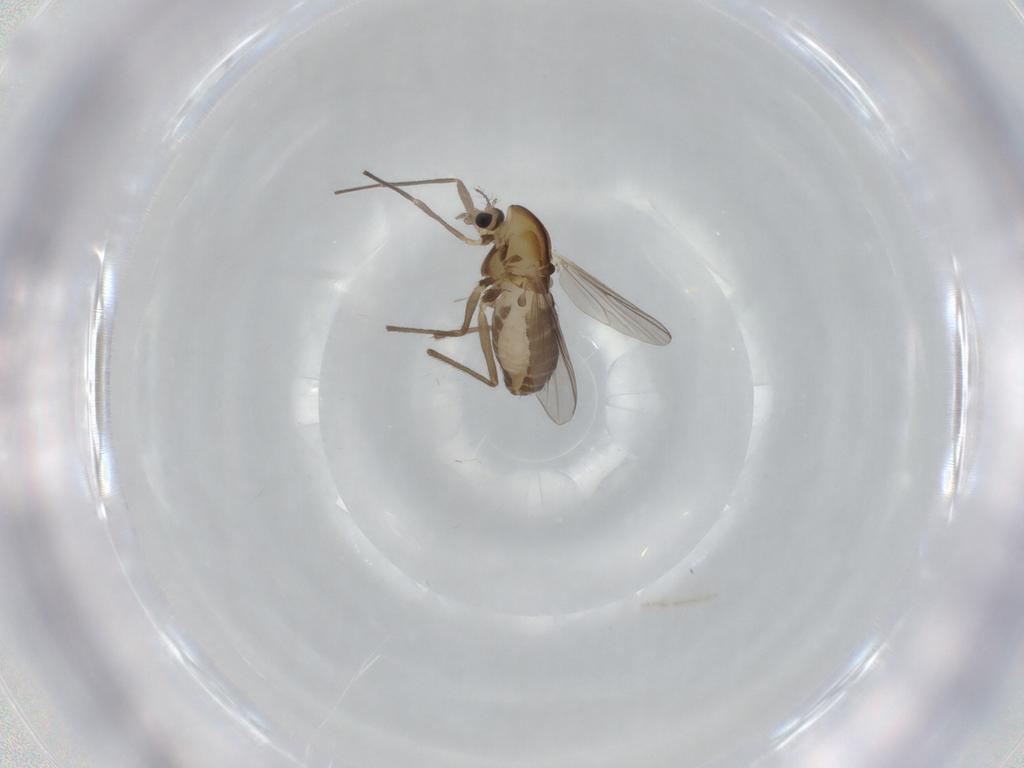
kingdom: Animalia
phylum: Arthropoda
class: Insecta
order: Diptera
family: Chironomidae
